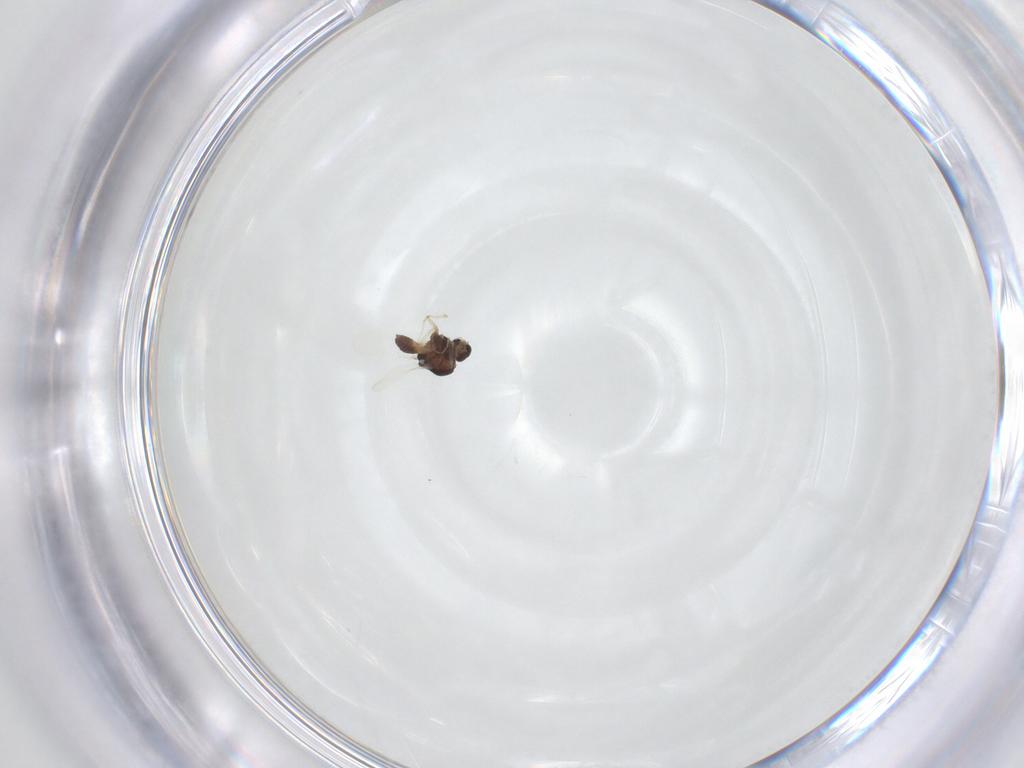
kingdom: Animalia
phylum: Arthropoda
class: Insecta
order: Diptera
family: Chironomidae
